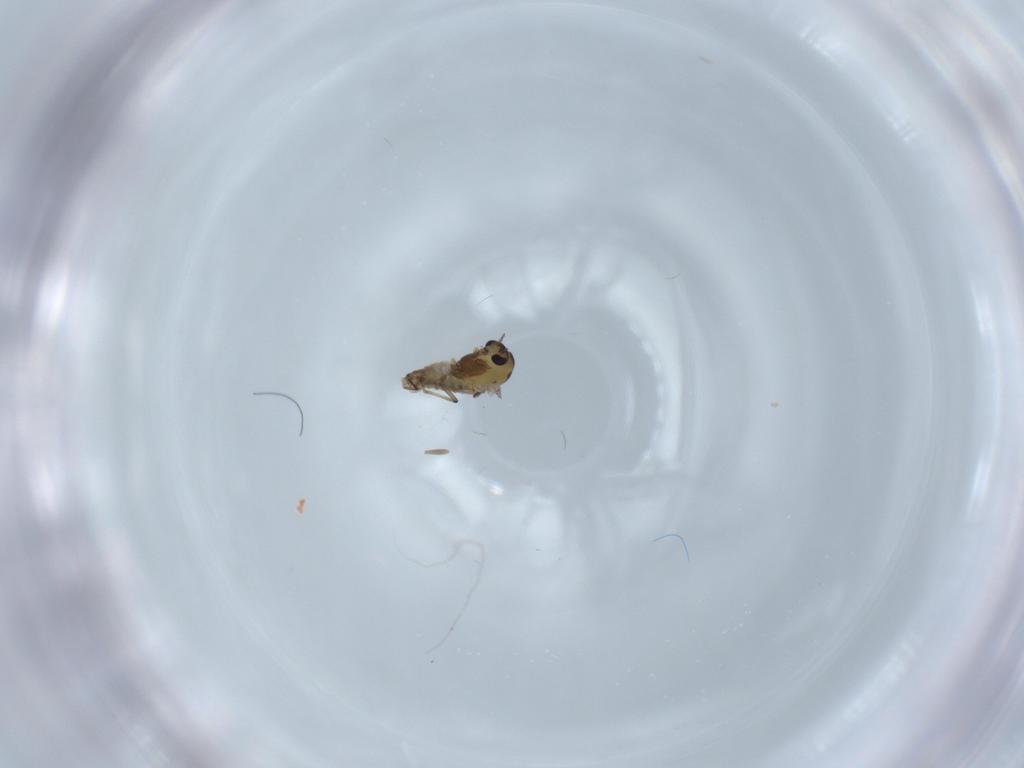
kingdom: Animalia
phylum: Arthropoda
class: Insecta
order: Diptera
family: Chironomidae
